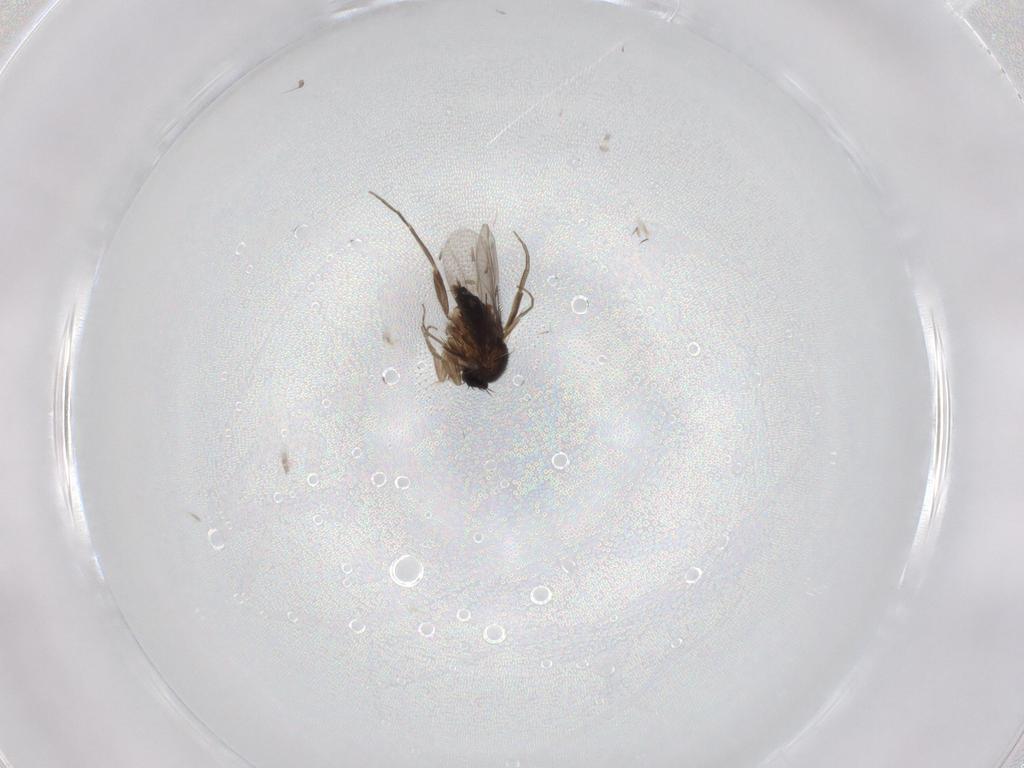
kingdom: Animalia
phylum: Arthropoda
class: Insecta
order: Diptera
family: Phoridae
